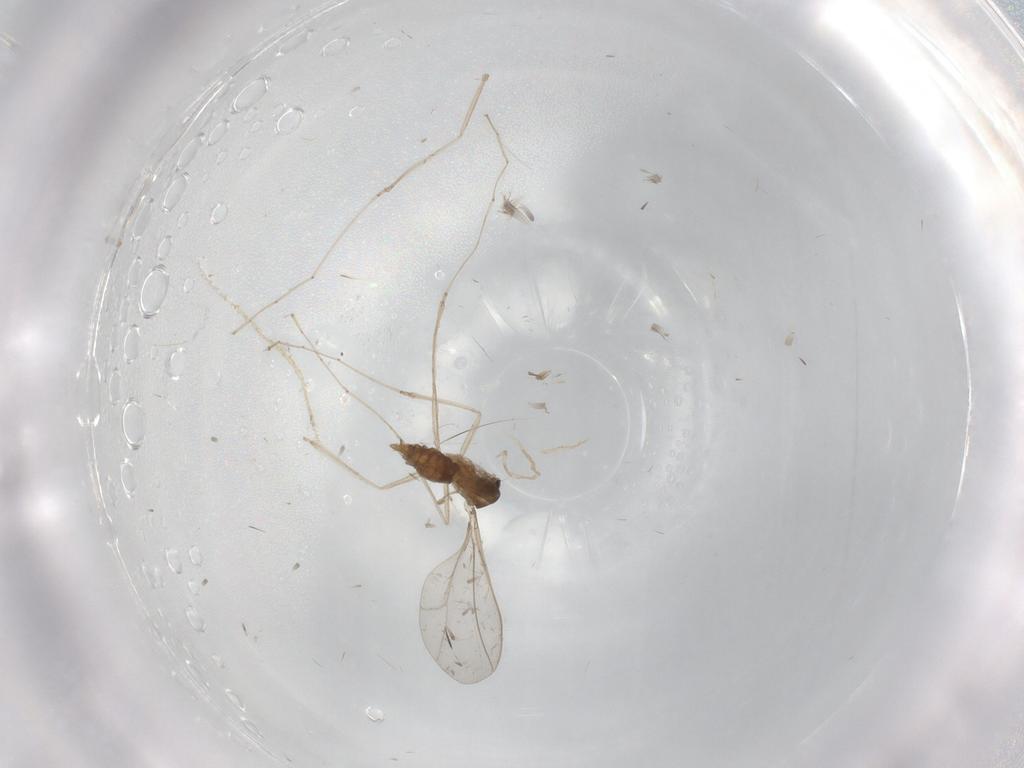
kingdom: Animalia
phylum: Arthropoda
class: Insecta
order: Diptera
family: Cecidomyiidae
